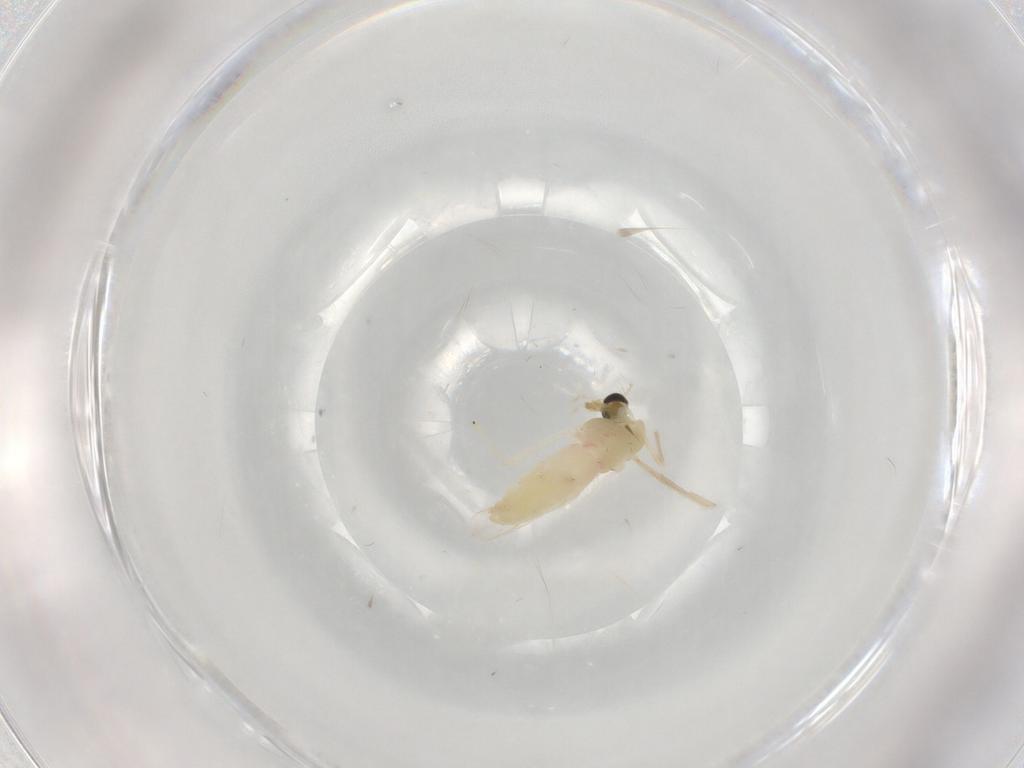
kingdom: Animalia
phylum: Arthropoda
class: Insecta
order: Diptera
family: Chironomidae
